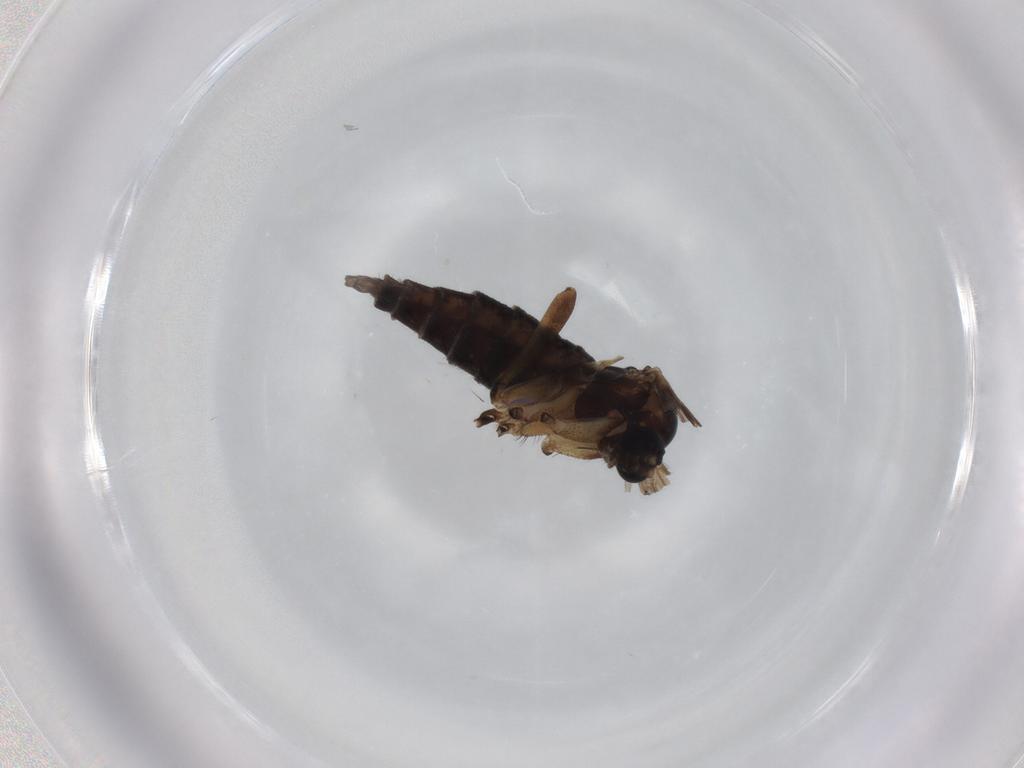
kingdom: Animalia
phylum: Arthropoda
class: Insecta
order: Diptera
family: Sciaridae
